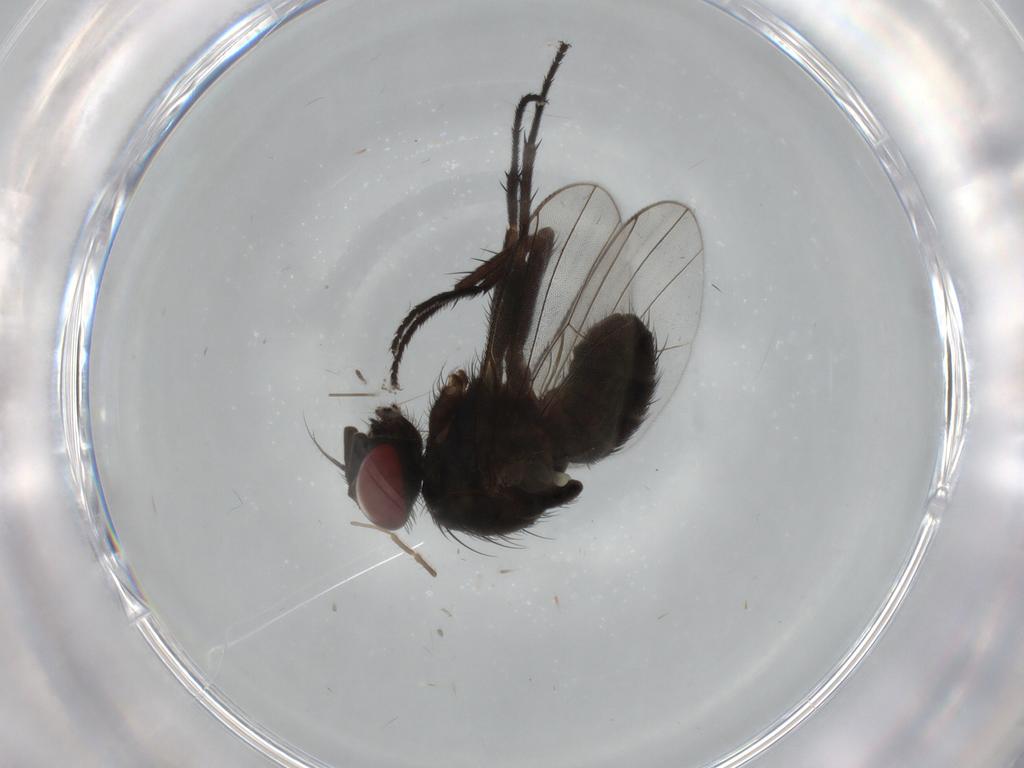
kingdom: Animalia
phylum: Arthropoda
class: Insecta
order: Diptera
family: Muscidae
